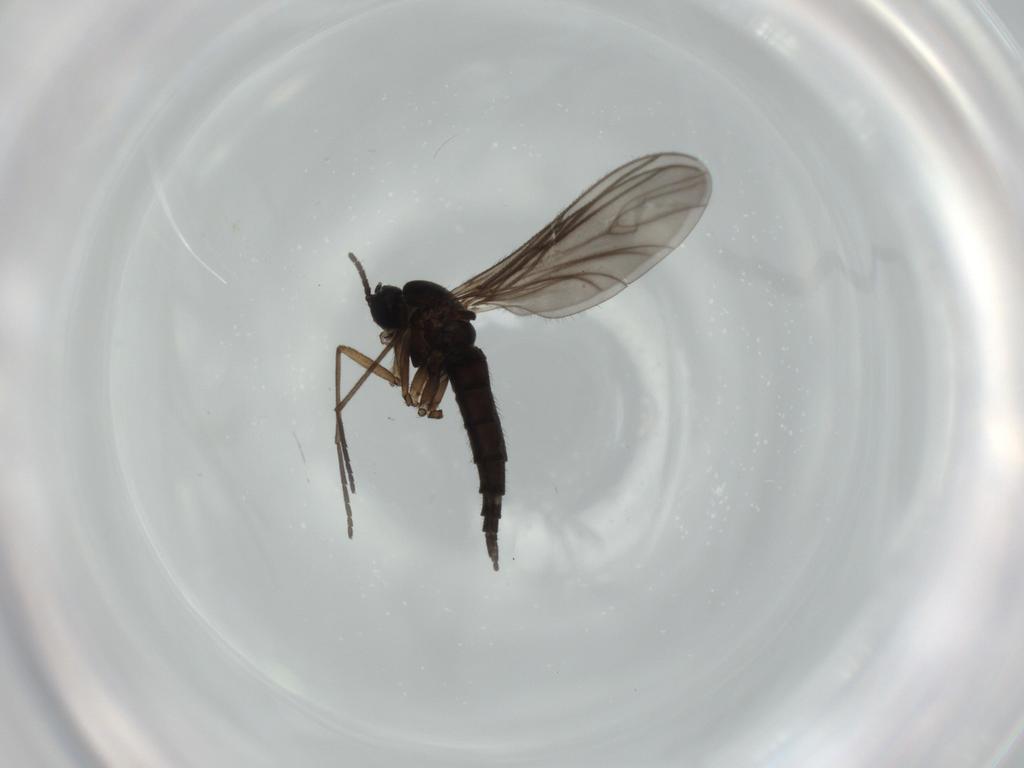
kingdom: Animalia
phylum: Arthropoda
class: Insecta
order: Diptera
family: Sciaridae
